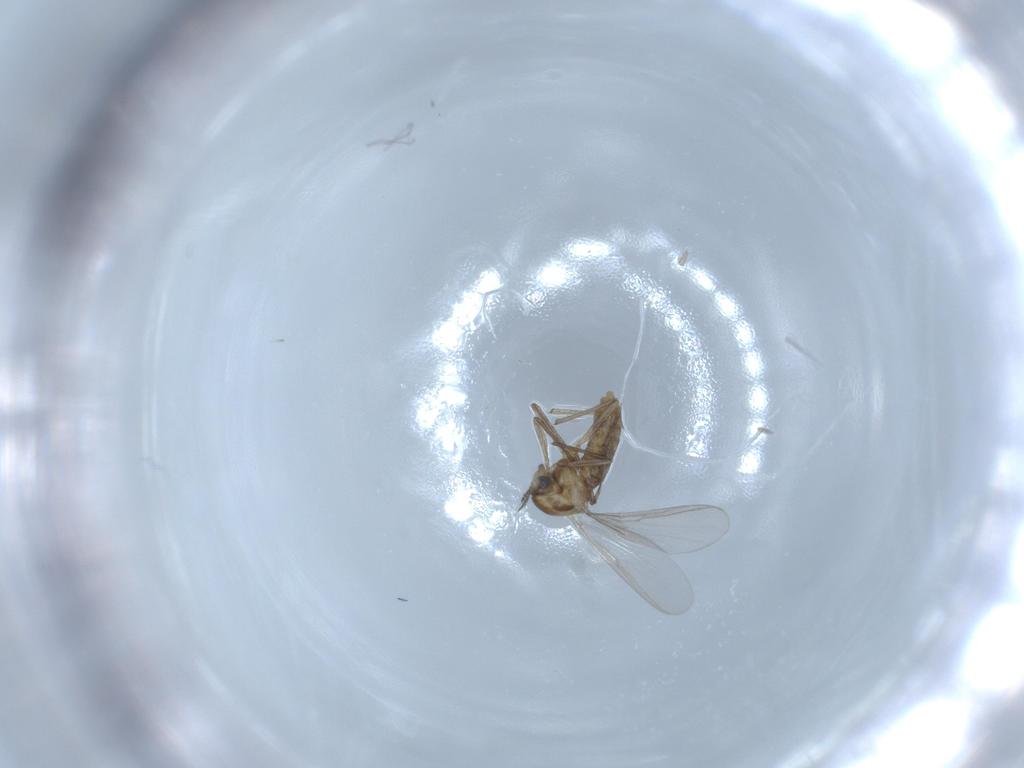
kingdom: Animalia
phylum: Arthropoda
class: Insecta
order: Diptera
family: Chironomidae
